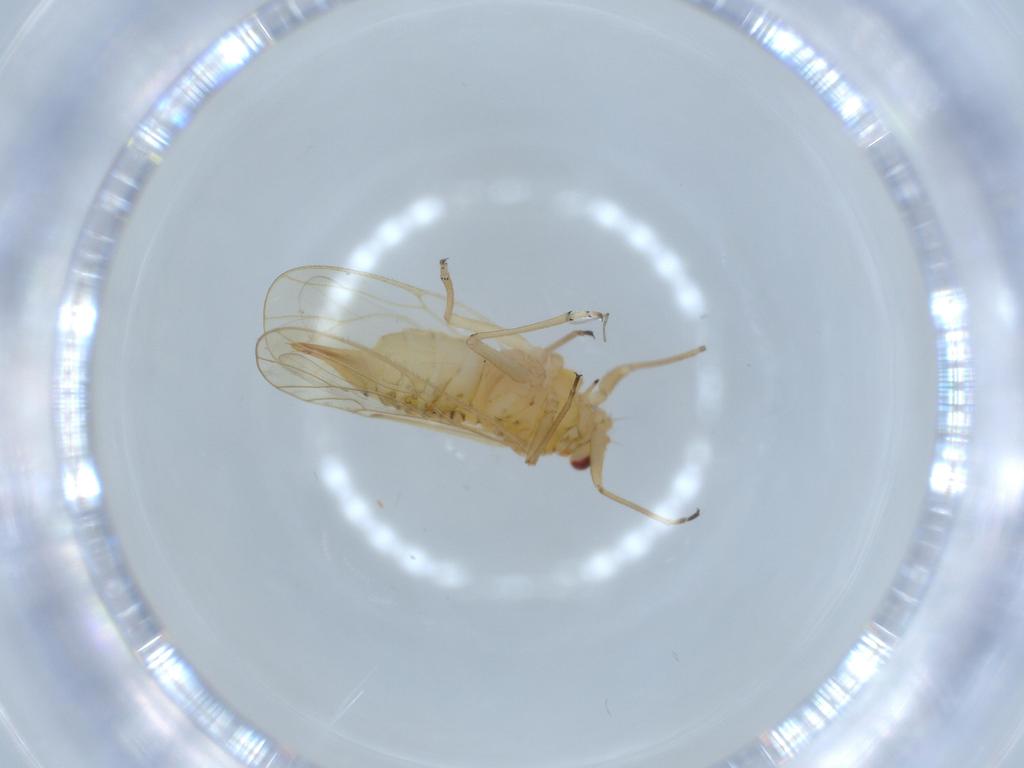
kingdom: Animalia
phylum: Arthropoda
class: Insecta
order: Hemiptera
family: Psyllidae
